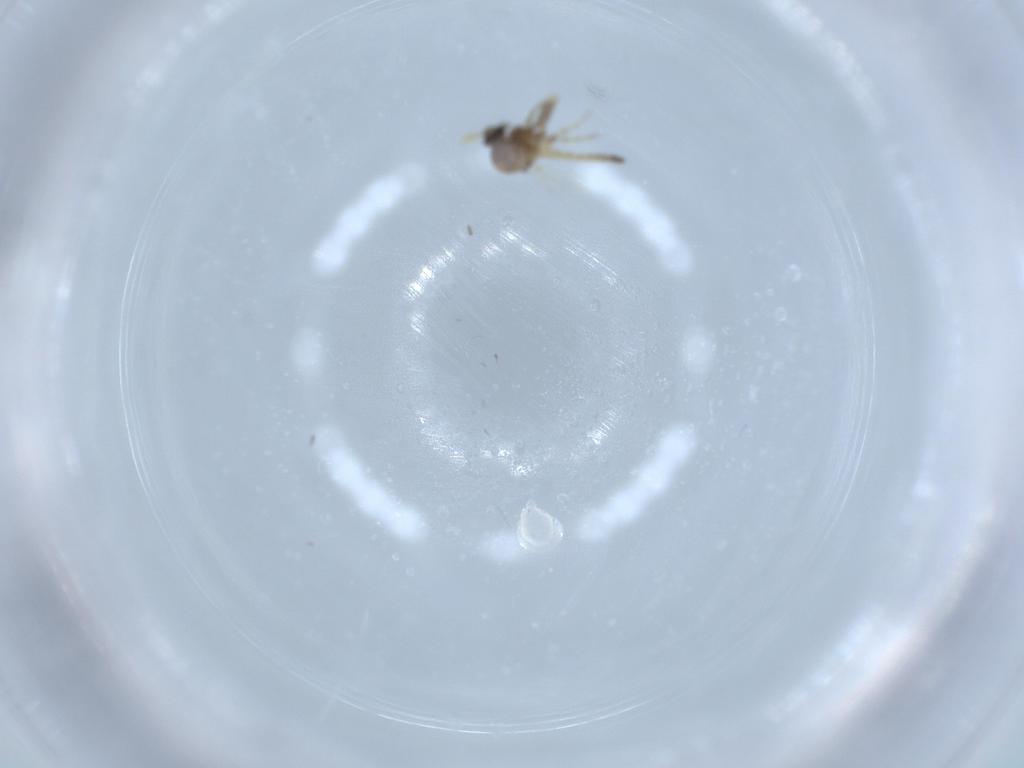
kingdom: Animalia
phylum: Arthropoda
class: Insecta
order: Diptera
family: Ceratopogonidae
